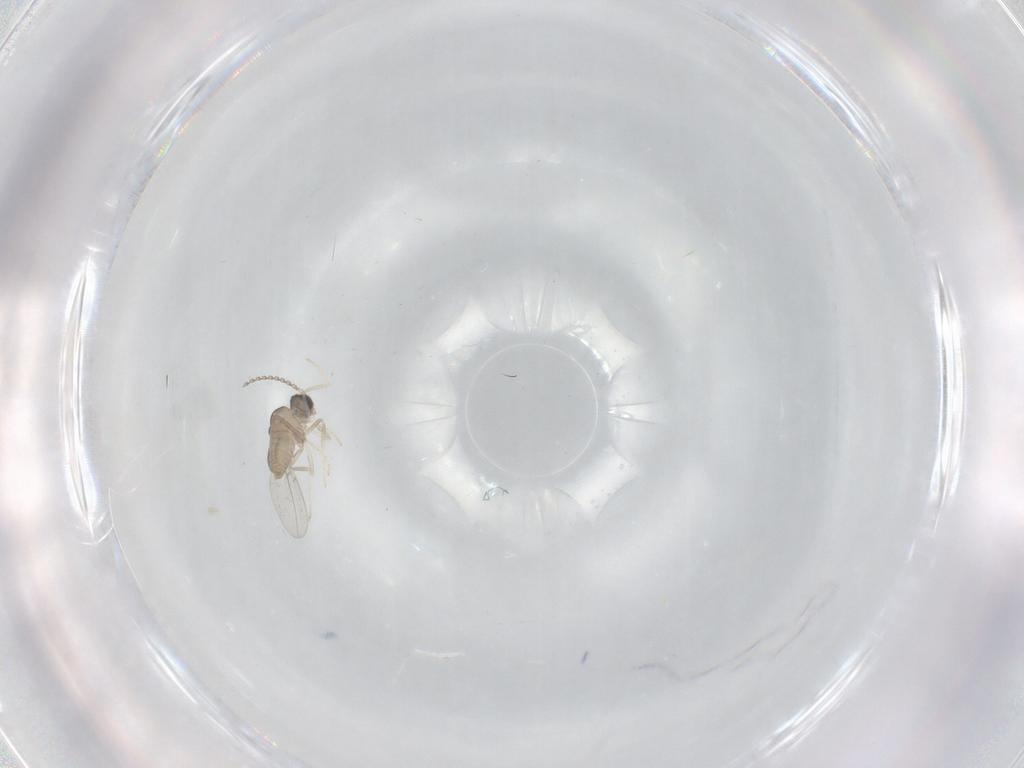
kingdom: Animalia
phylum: Arthropoda
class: Insecta
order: Diptera
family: Cecidomyiidae
